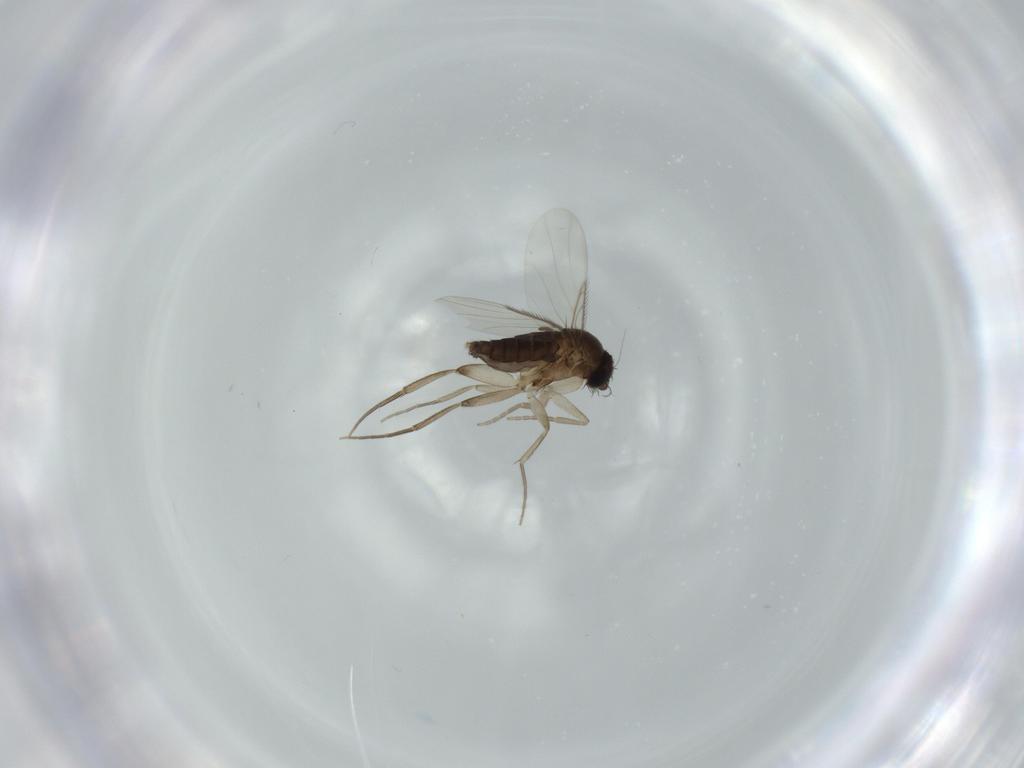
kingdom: Animalia
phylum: Arthropoda
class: Insecta
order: Diptera
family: Phoridae
